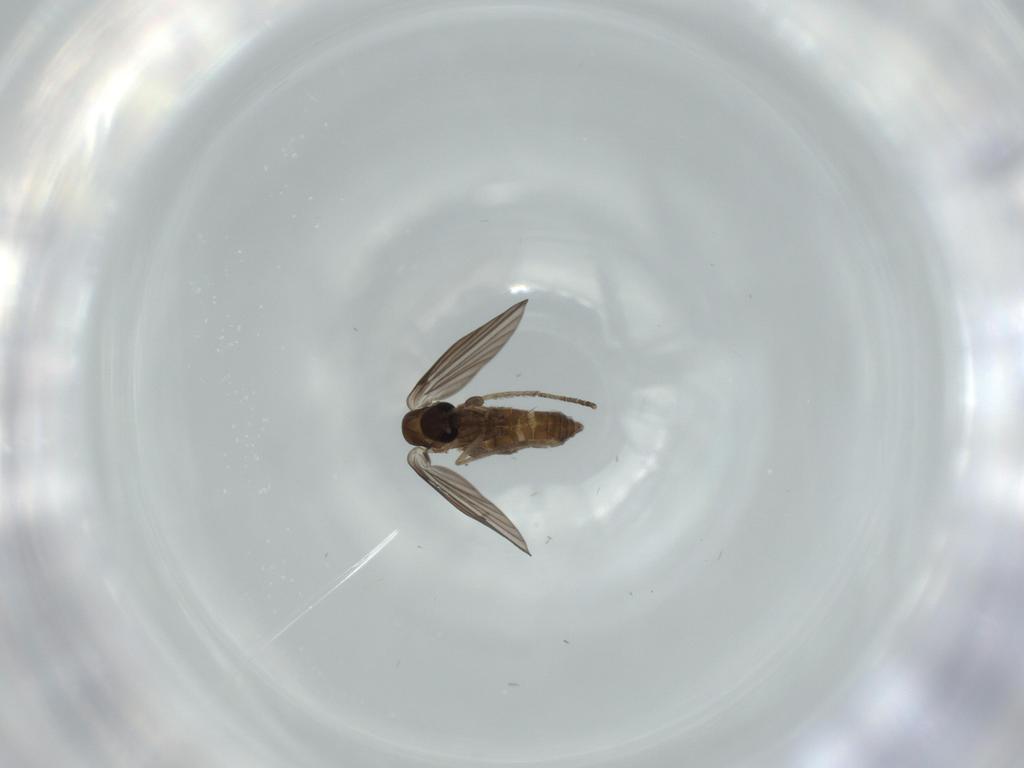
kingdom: Animalia
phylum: Arthropoda
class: Insecta
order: Diptera
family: Psychodidae
